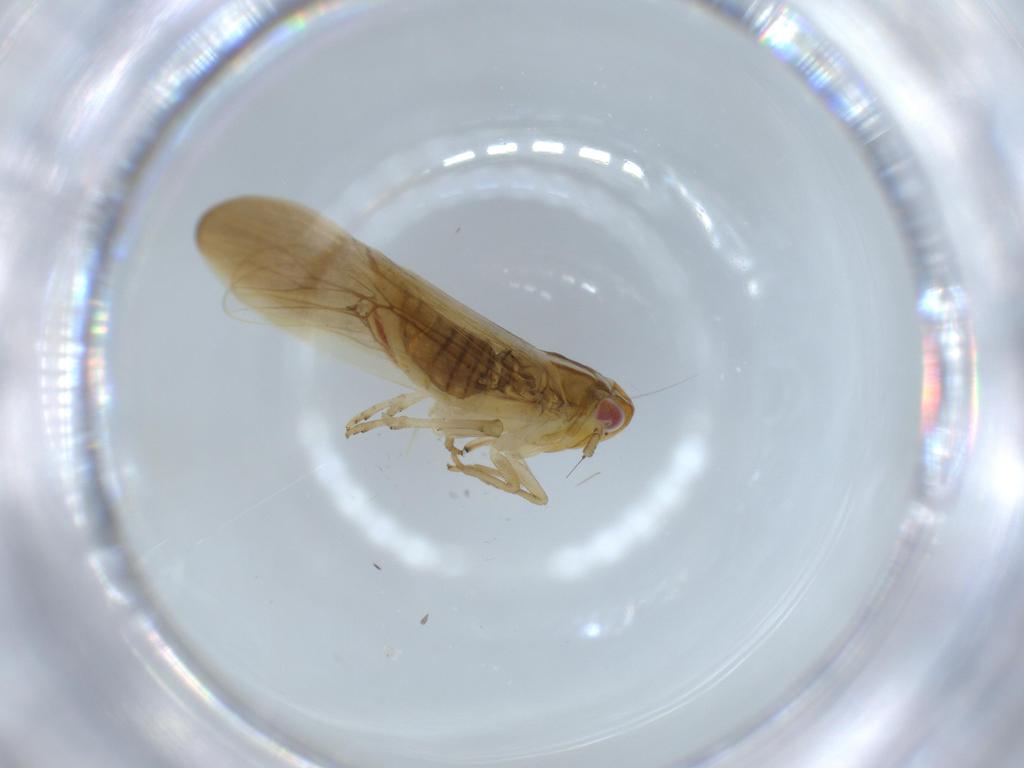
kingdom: Animalia
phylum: Arthropoda
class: Insecta
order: Hemiptera
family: Delphacidae
